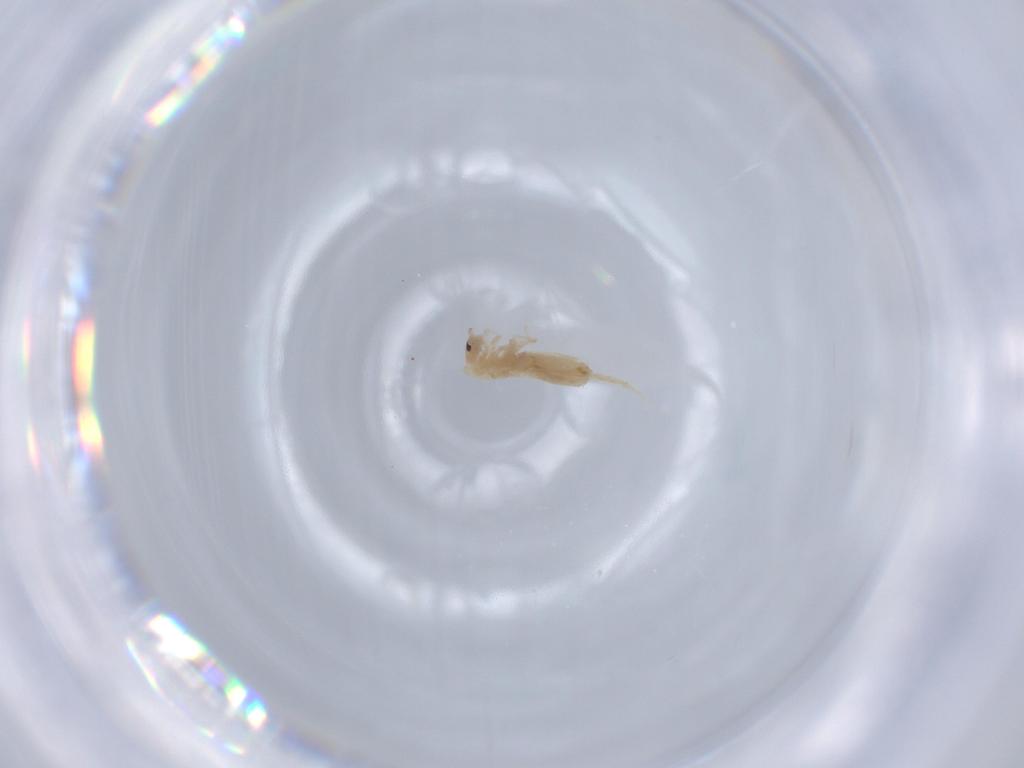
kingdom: Animalia
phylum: Arthropoda
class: Collembola
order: Entomobryomorpha
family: Entomobryidae
